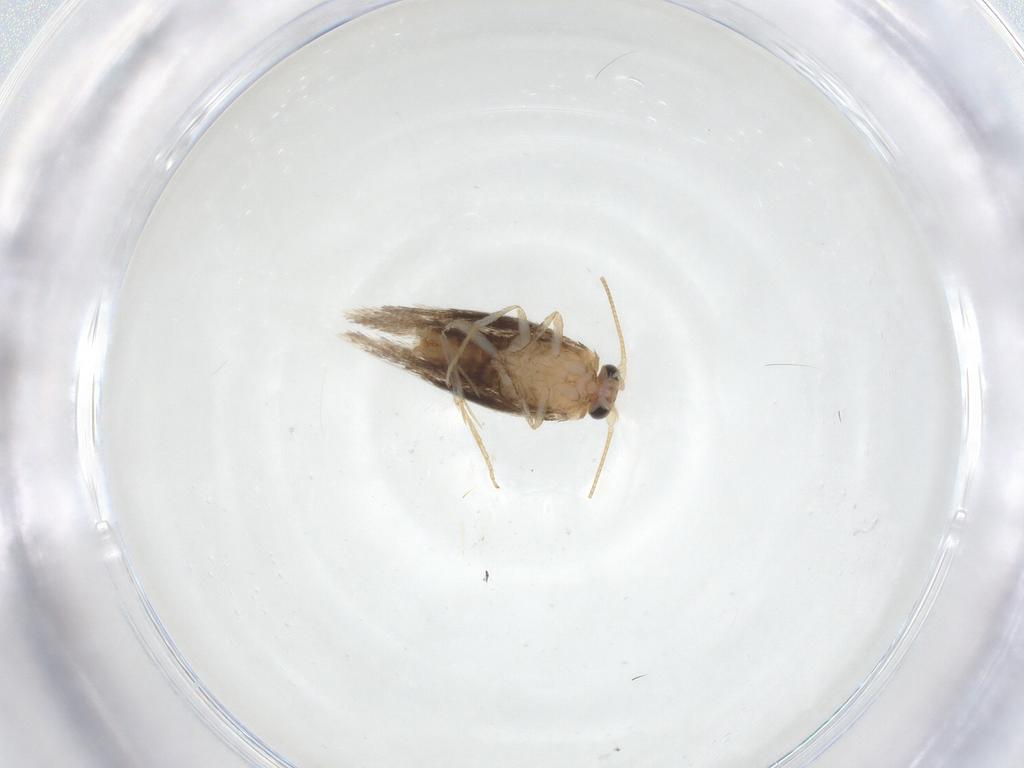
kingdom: Animalia
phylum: Arthropoda
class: Insecta
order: Lepidoptera
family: Nepticulidae
